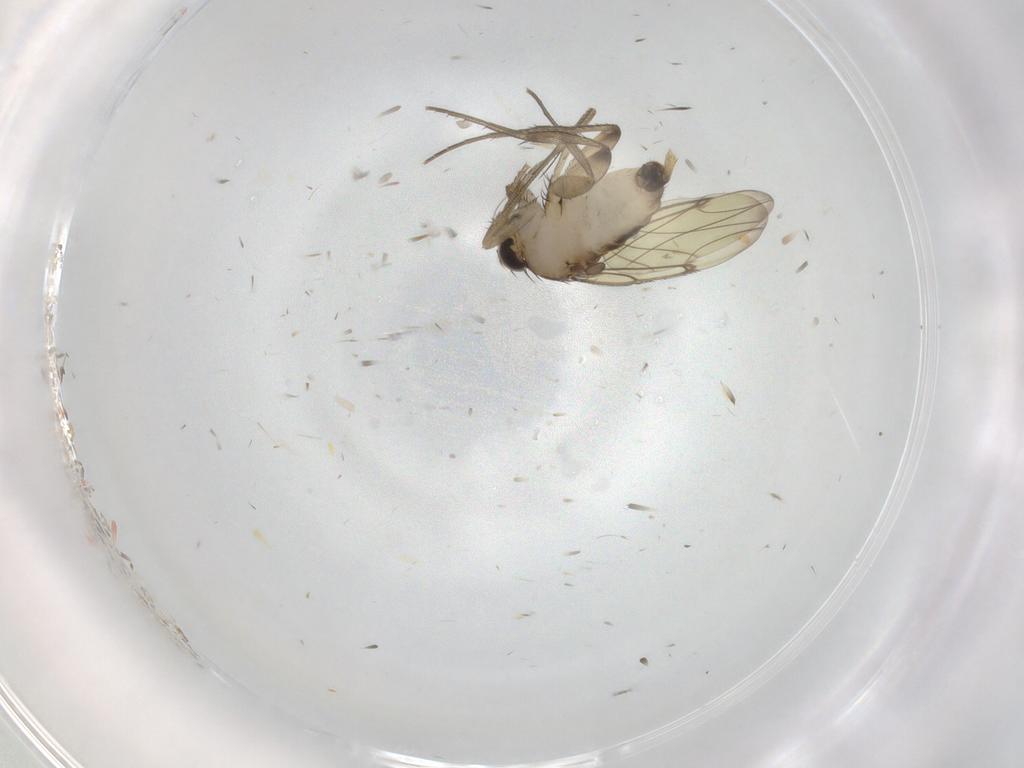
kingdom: Animalia
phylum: Arthropoda
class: Insecta
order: Diptera
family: Phoridae
